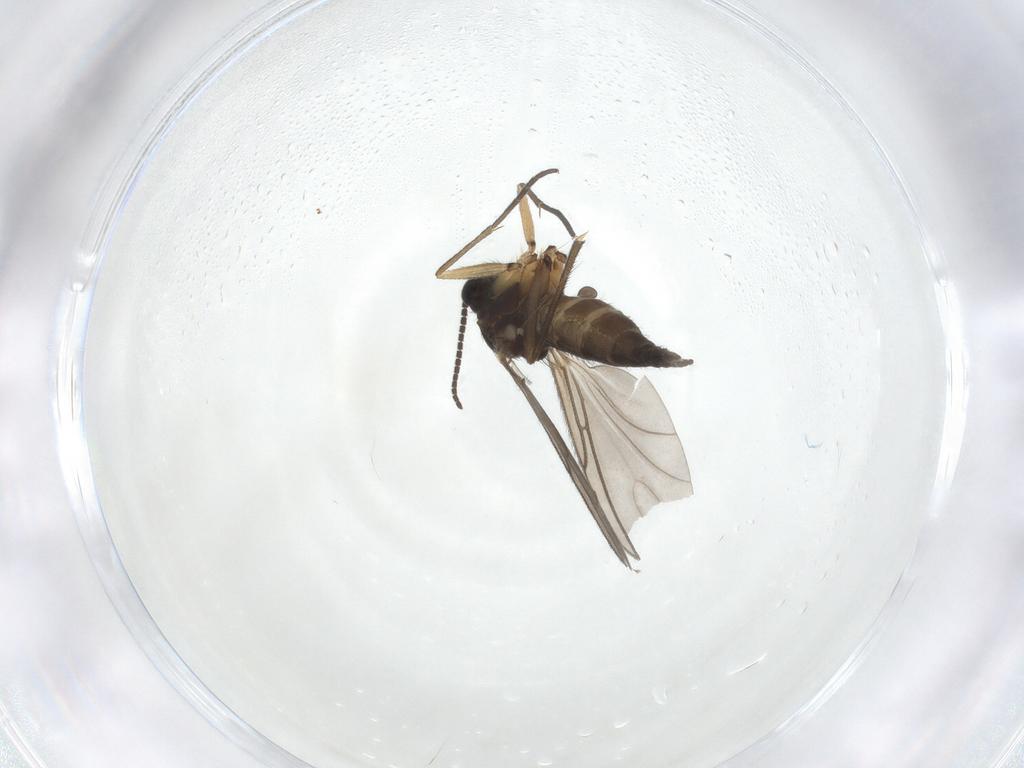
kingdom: Animalia
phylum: Arthropoda
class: Insecta
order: Diptera
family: Sciaridae
